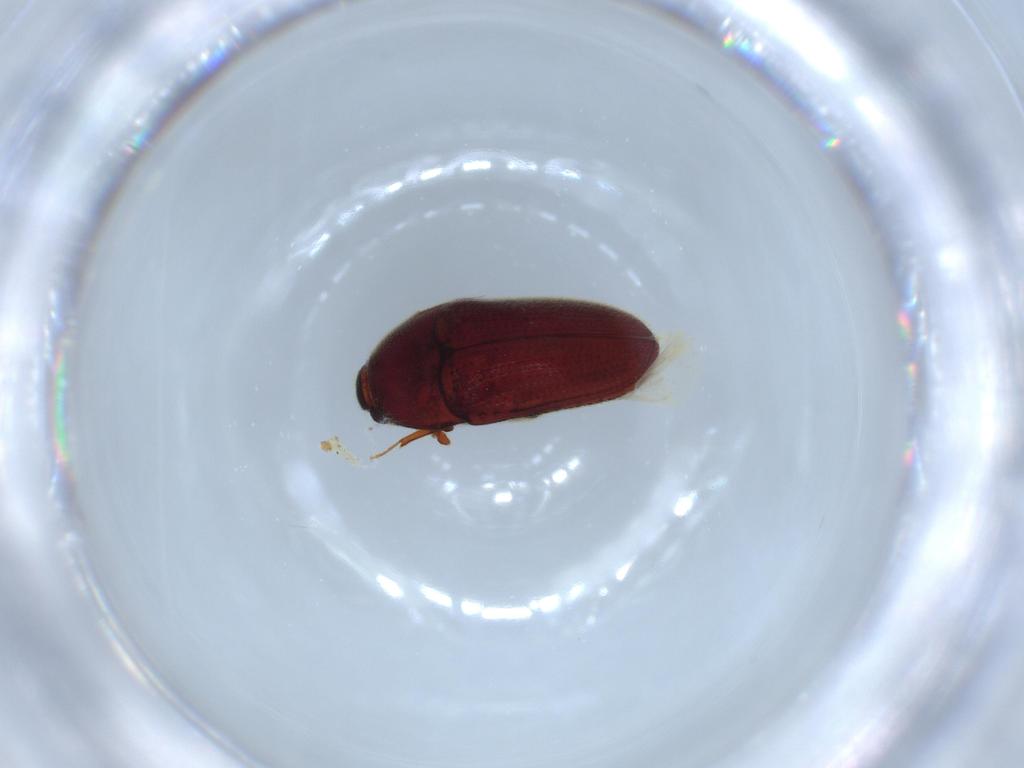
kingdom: Animalia
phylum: Arthropoda
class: Insecta
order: Coleoptera
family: Throscidae
